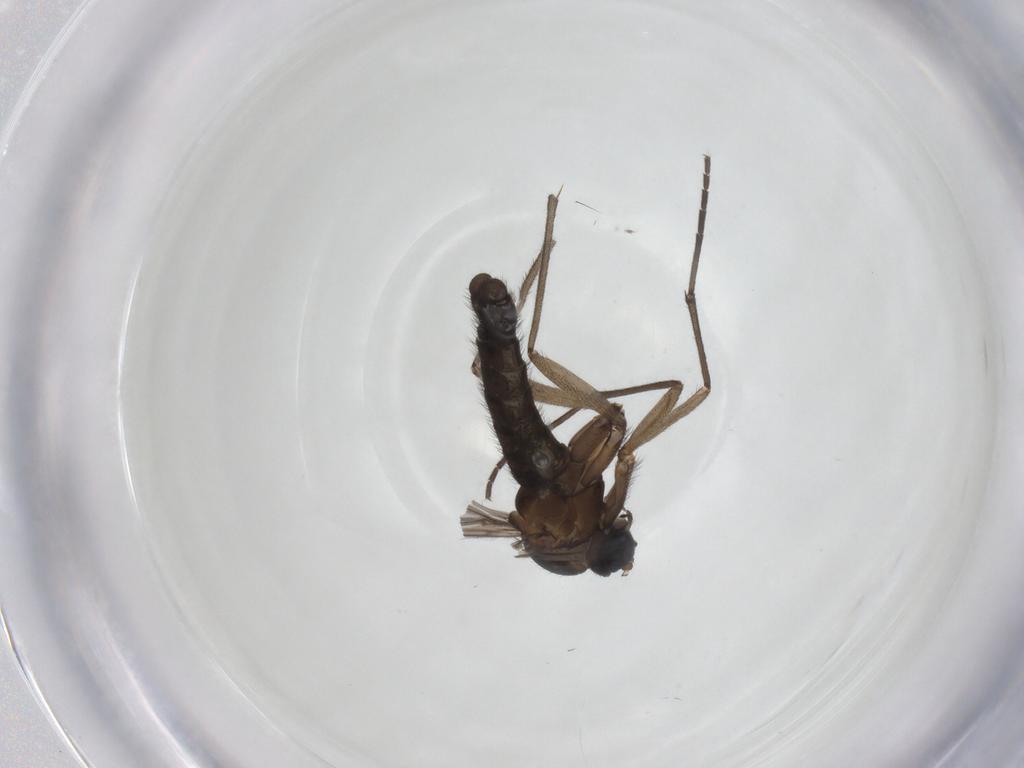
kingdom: Animalia
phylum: Arthropoda
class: Insecta
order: Diptera
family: Sciaridae
